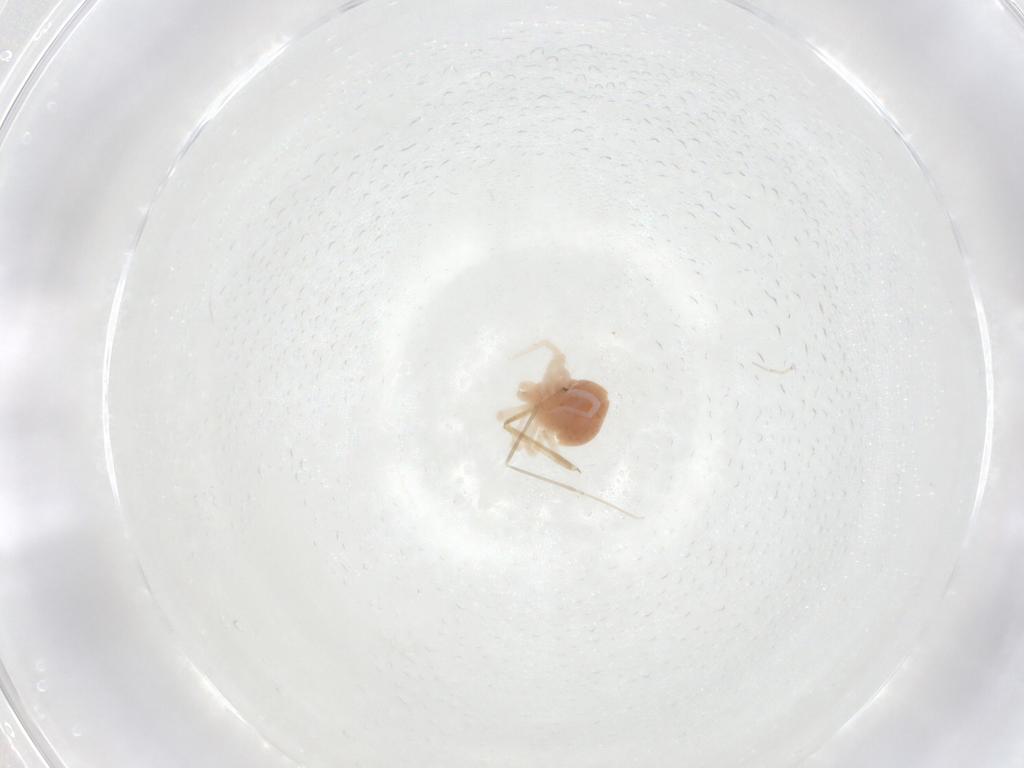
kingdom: Animalia
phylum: Arthropoda
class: Arachnida
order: Trombidiformes
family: Anystidae
